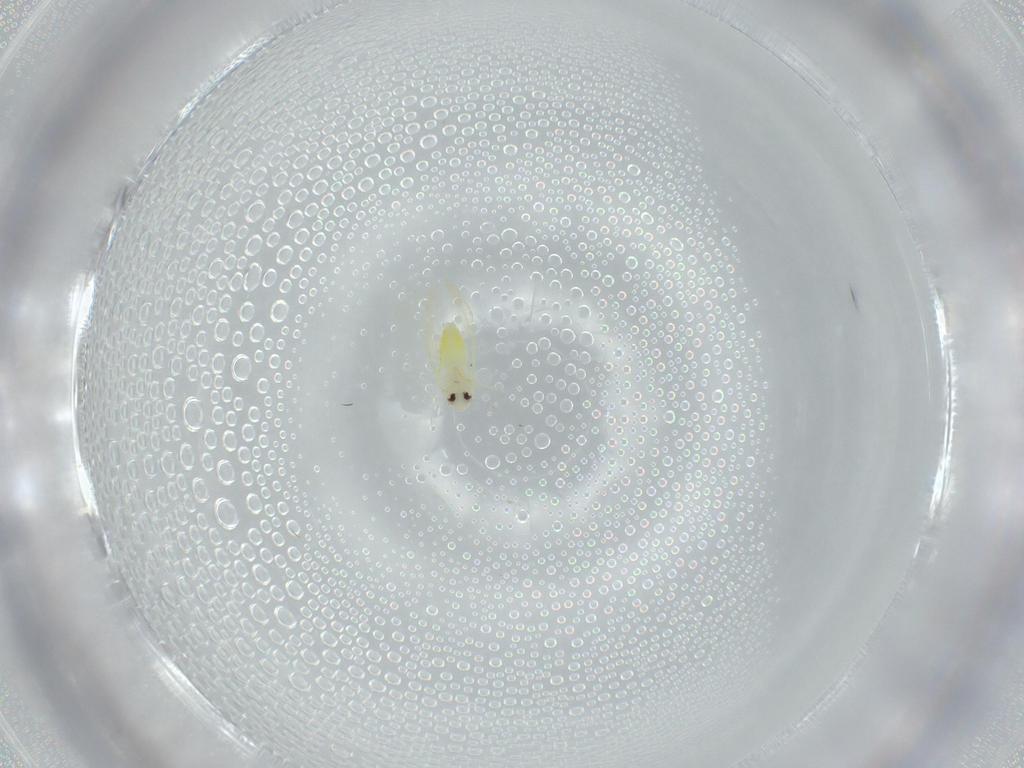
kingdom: Animalia
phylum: Arthropoda
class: Insecta
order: Hemiptera
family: Aleyrodidae
